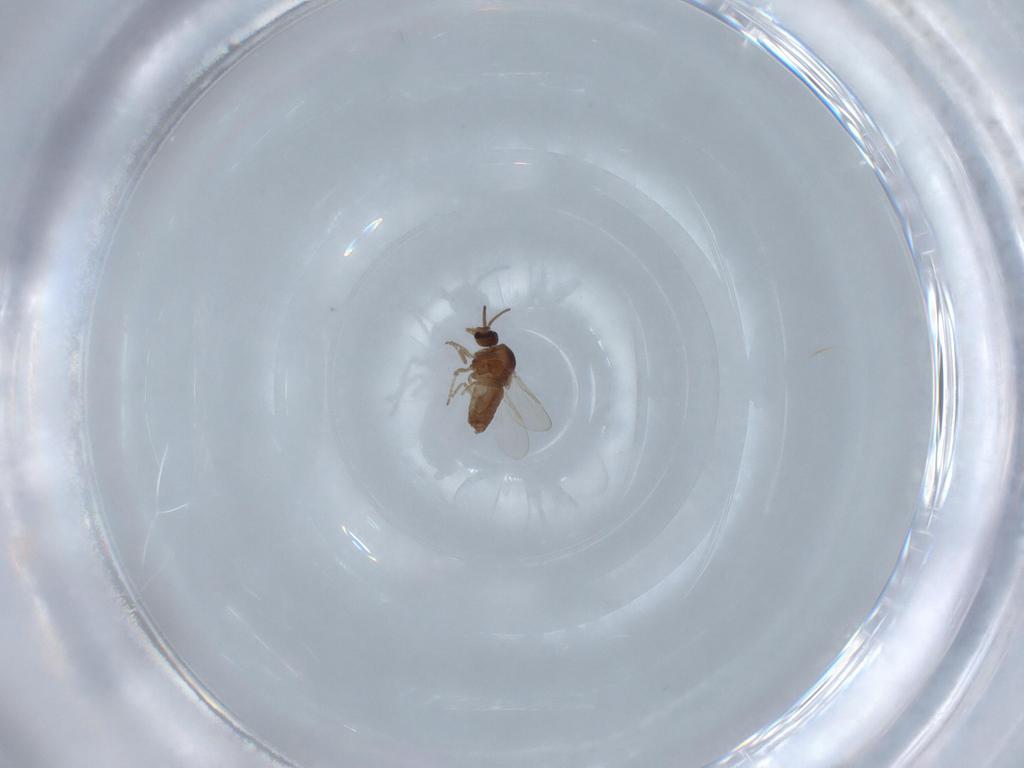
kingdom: Animalia
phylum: Arthropoda
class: Insecta
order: Diptera
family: Ceratopogonidae
